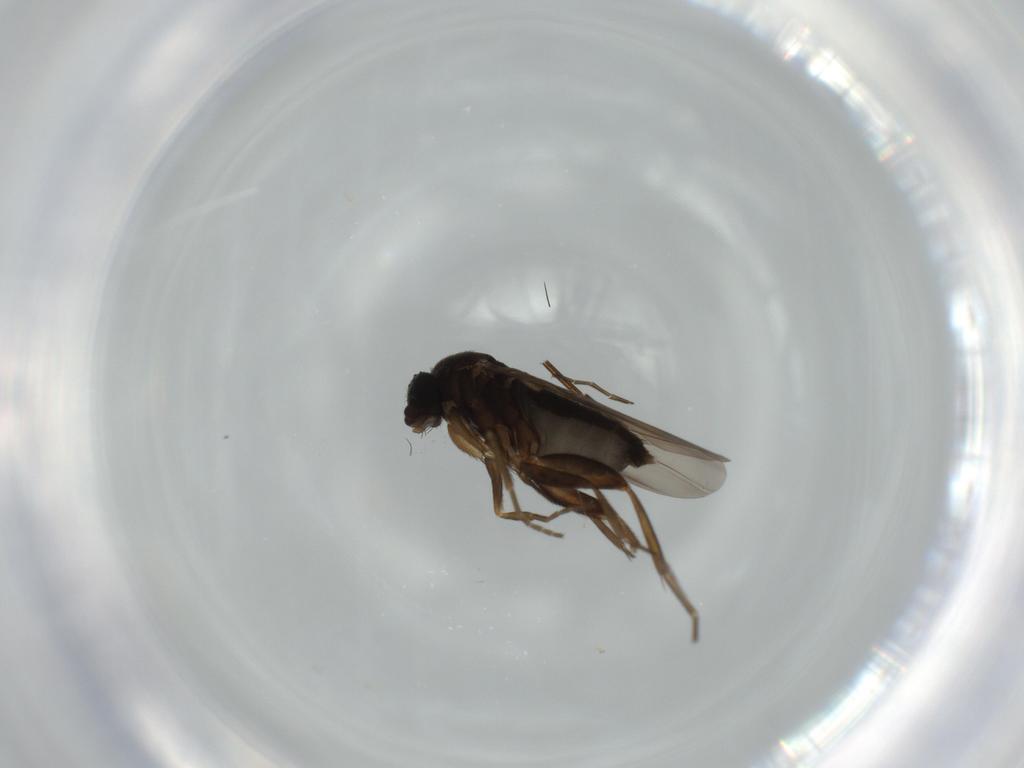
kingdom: Animalia
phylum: Arthropoda
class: Insecta
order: Diptera
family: Phoridae
